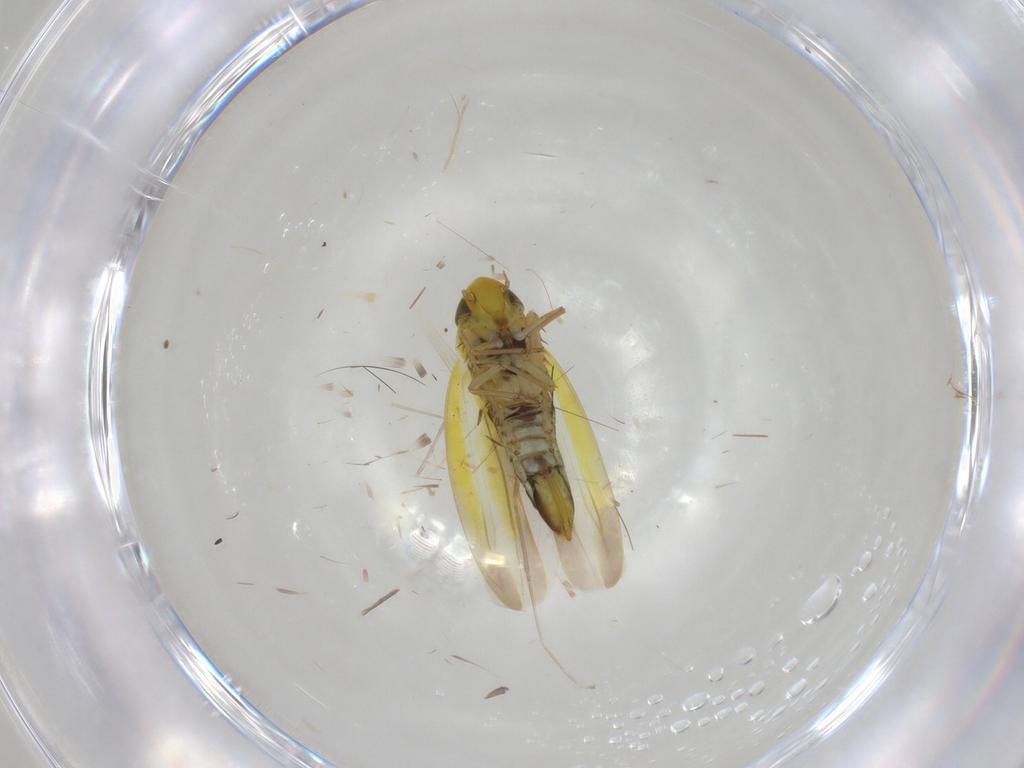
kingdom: Animalia
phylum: Arthropoda
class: Insecta
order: Hemiptera
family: Cicadellidae
